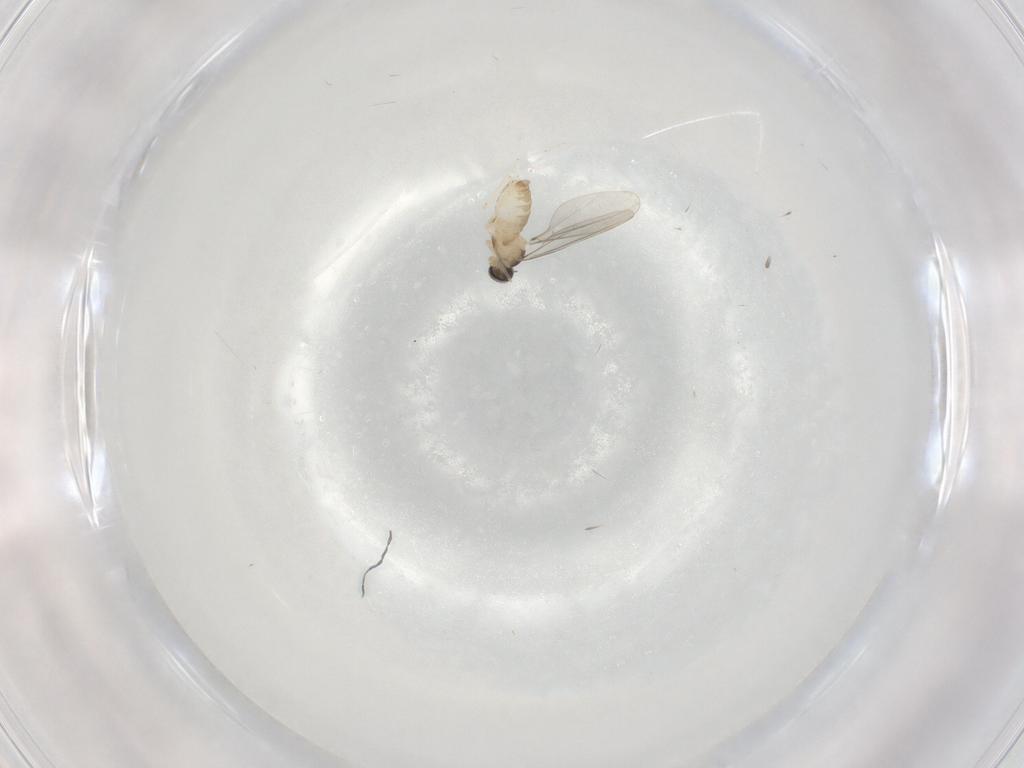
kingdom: Animalia
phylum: Arthropoda
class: Insecta
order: Diptera
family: Cecidomyiidae
